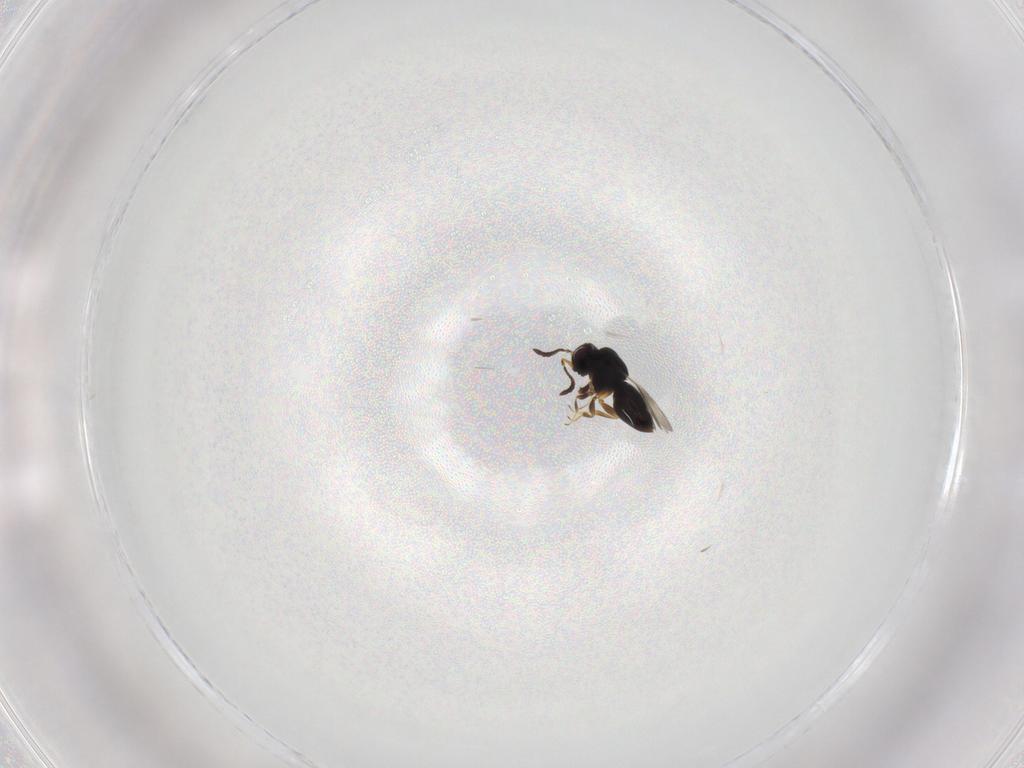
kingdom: Animalia
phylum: Arthropoda
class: Insecta
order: Hymenoptera
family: Ceraphronidae
